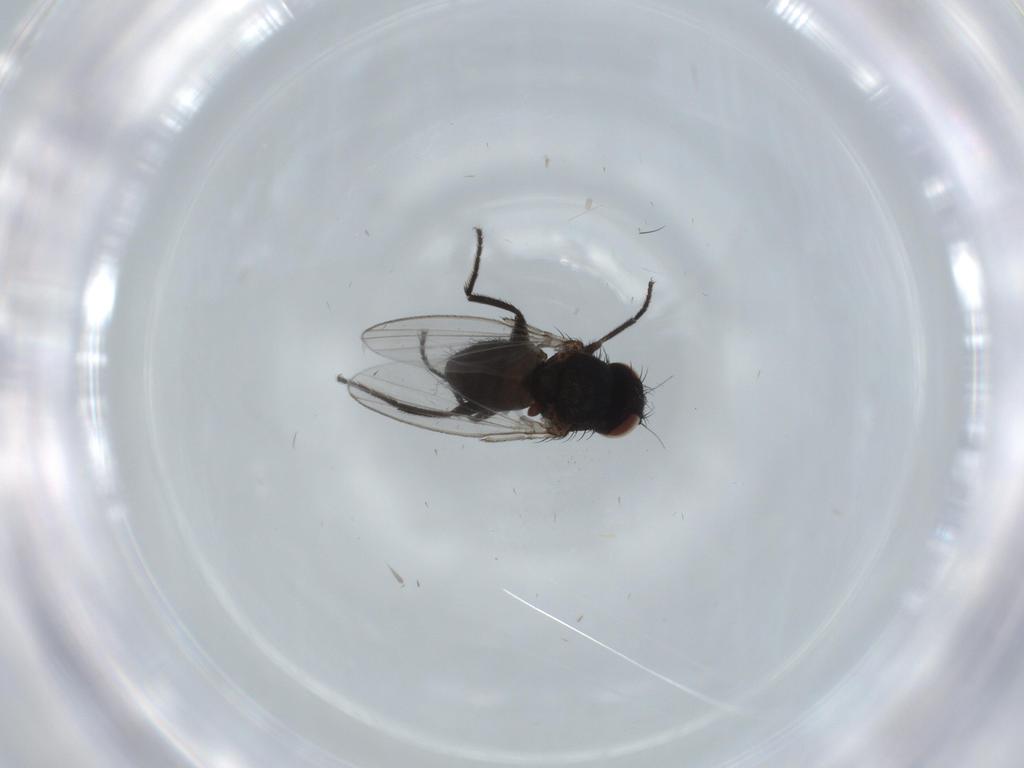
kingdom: Animalia
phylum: Arthropoda
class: Insecta
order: Diptera
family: Milichiidae
